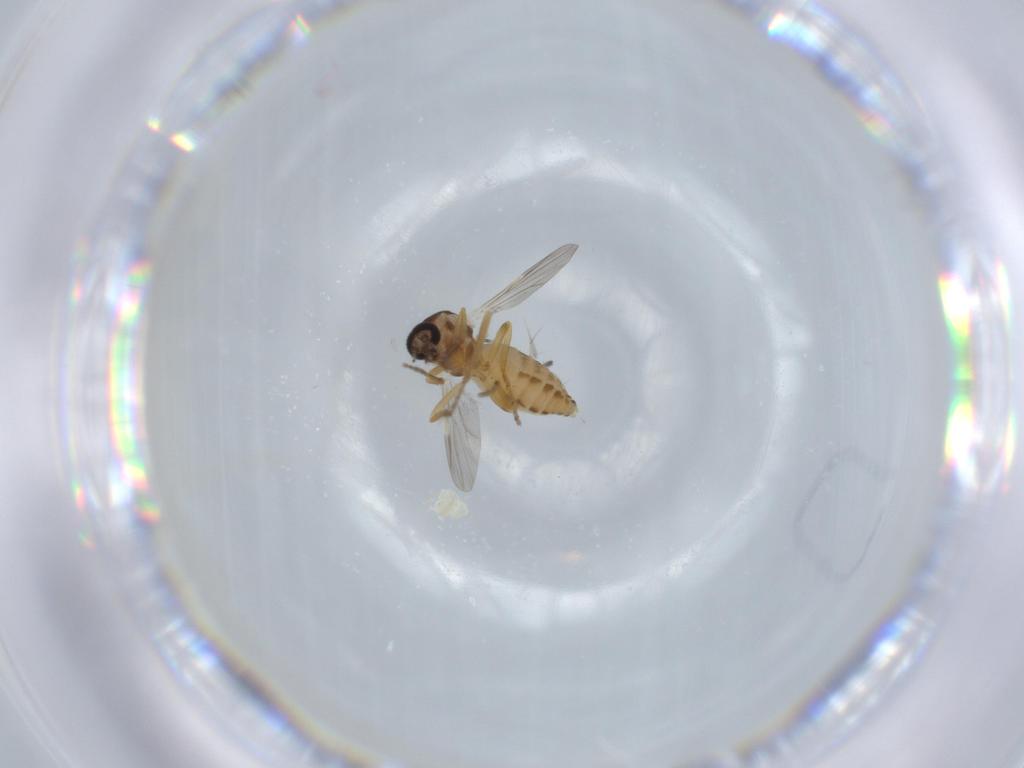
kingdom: Animalia
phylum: Arthropoda
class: Insecta
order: Diptera
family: Ceratopogonidae
